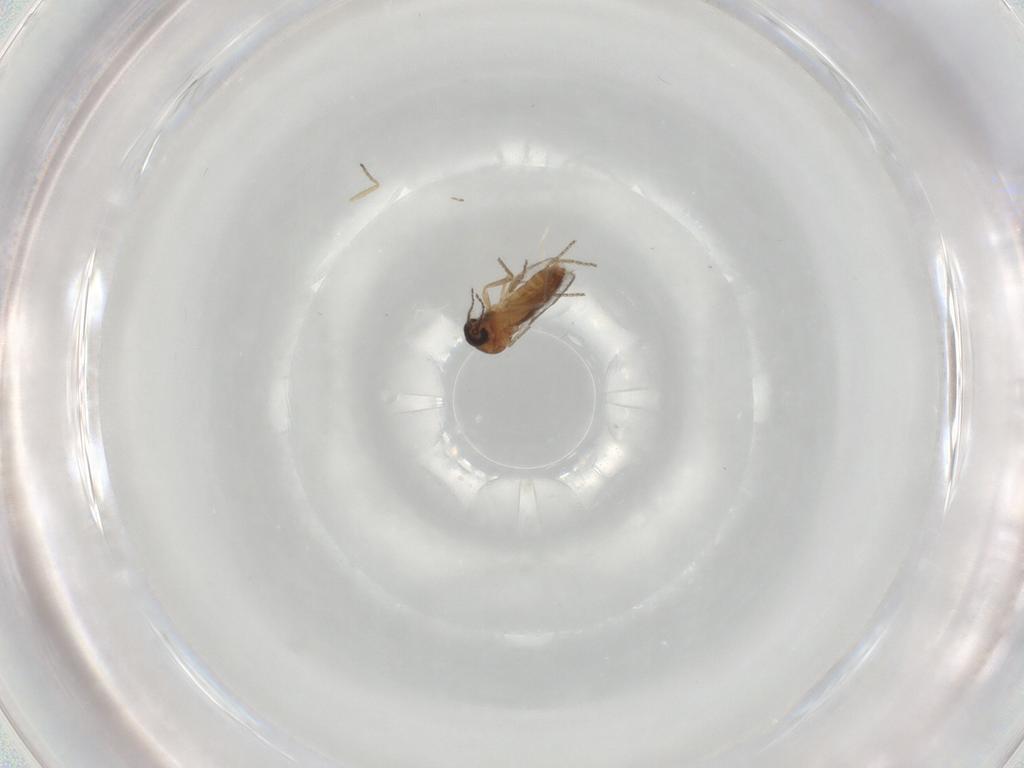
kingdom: Animalia
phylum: Arthropoda
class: Insecta
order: Diptera
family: Ceratopogonidae
